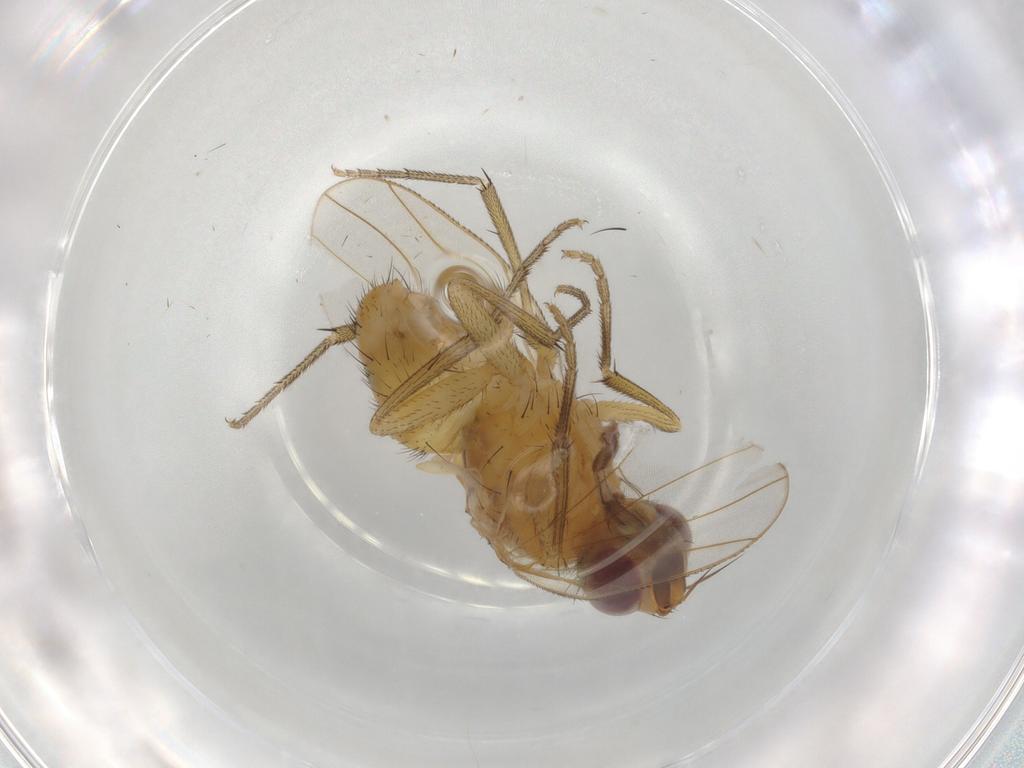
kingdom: Animalia
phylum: Arthropoda
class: Insecta
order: Diptera
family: Muscidae
